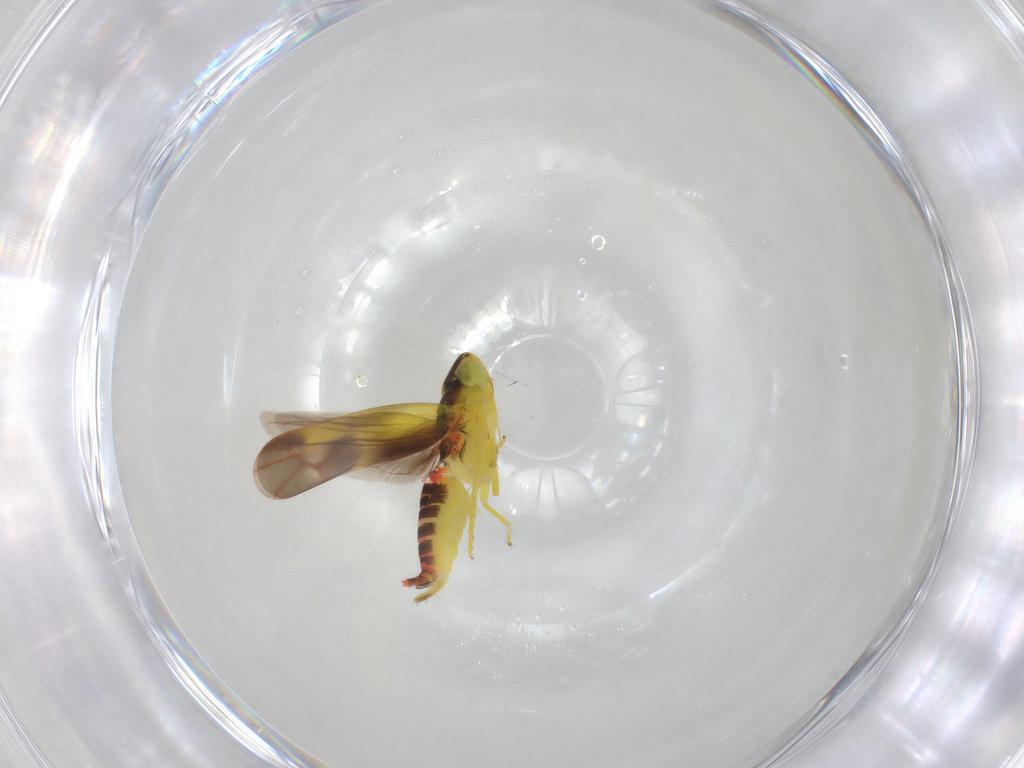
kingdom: Animalia
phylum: Arthropoda
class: Insecta
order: Hemiptera
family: Cicadellidae
